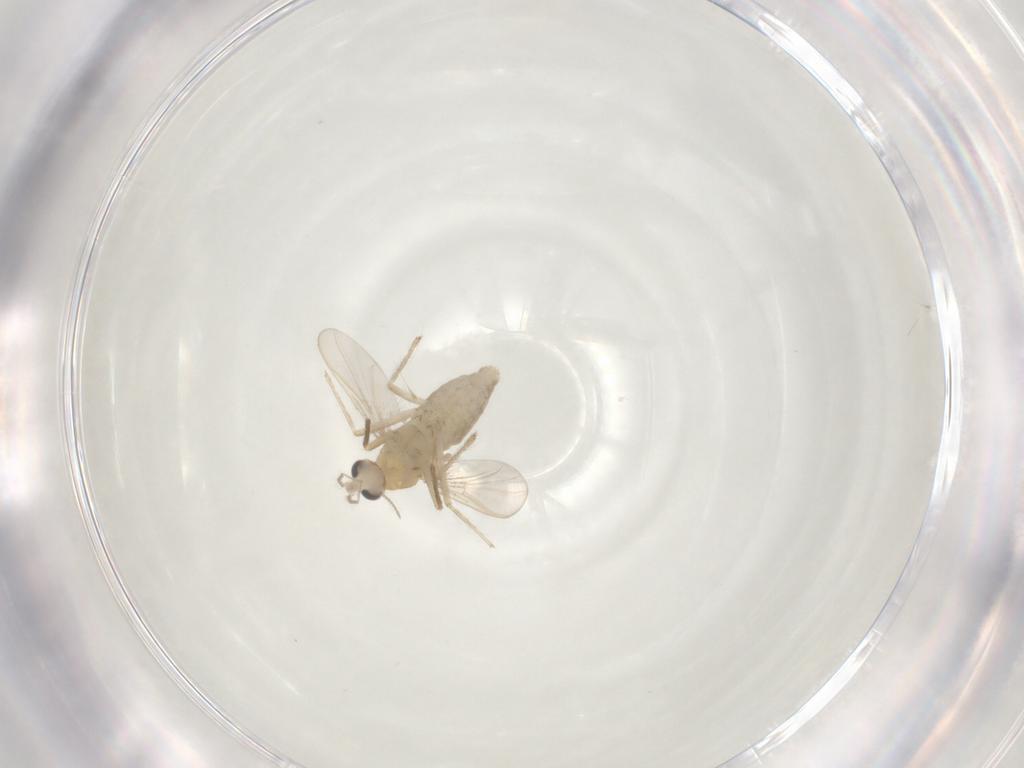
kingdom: Animalia
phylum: Arthropoda
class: Insecta
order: Diptera
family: Chironomidae
